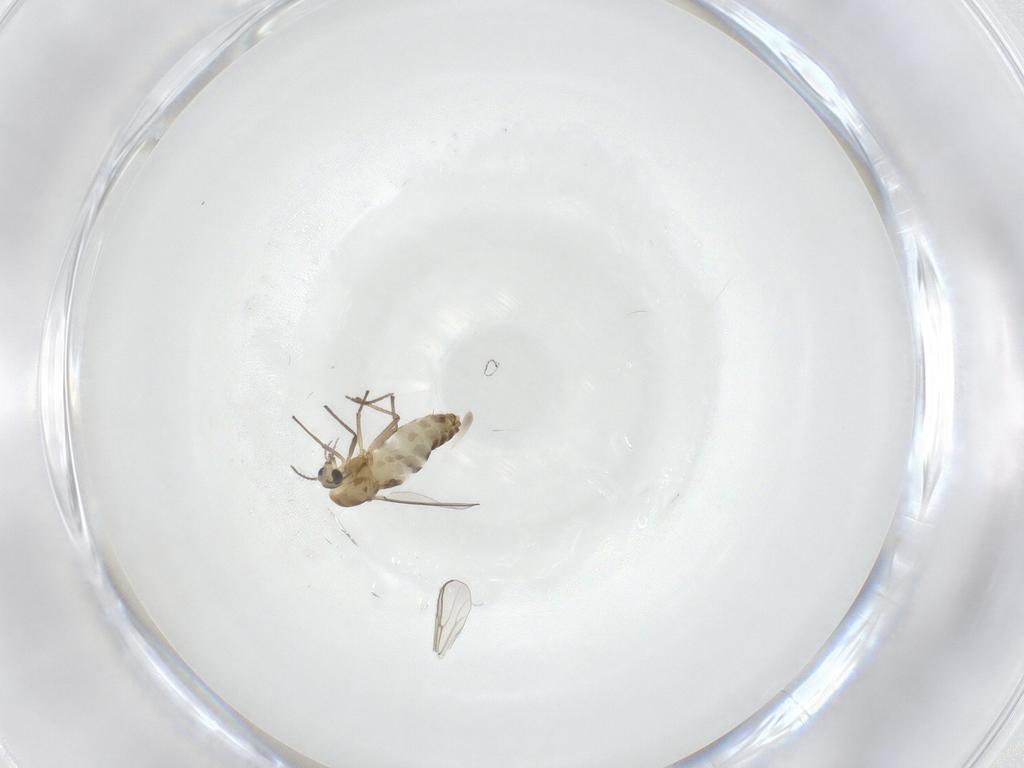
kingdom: Animalia
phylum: Arthropoda
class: Insecta
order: Diptera
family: Chironomidae
